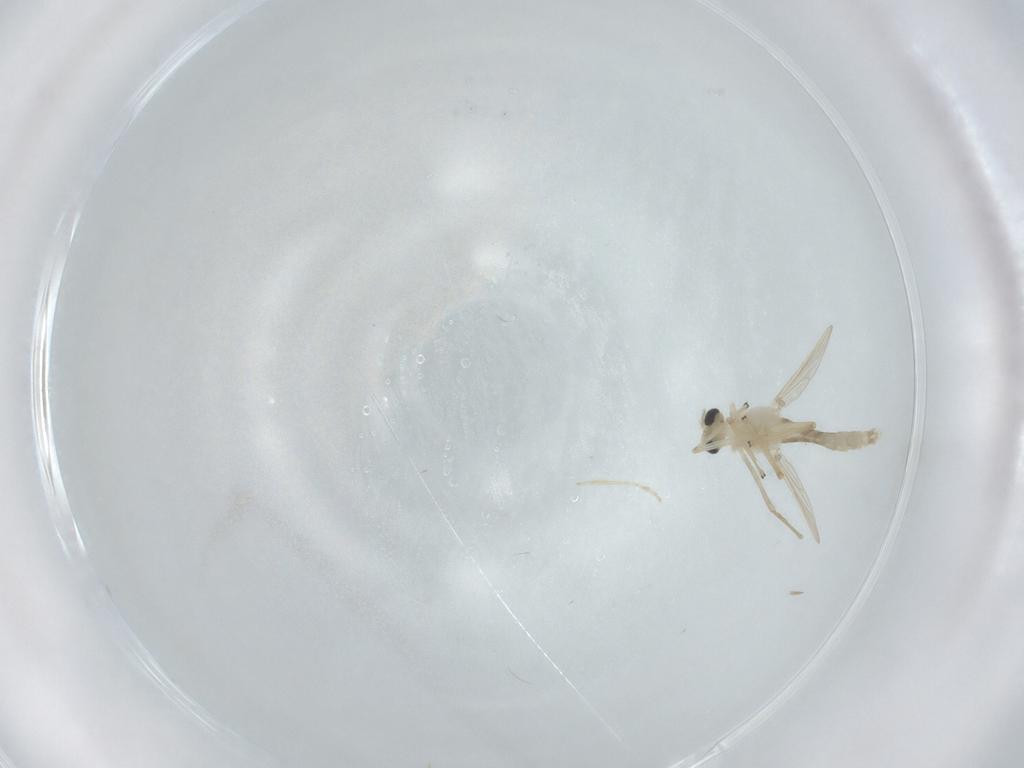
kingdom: Animalia
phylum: Arthropoda
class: Insecta
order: Diptera
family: Chironomidae
